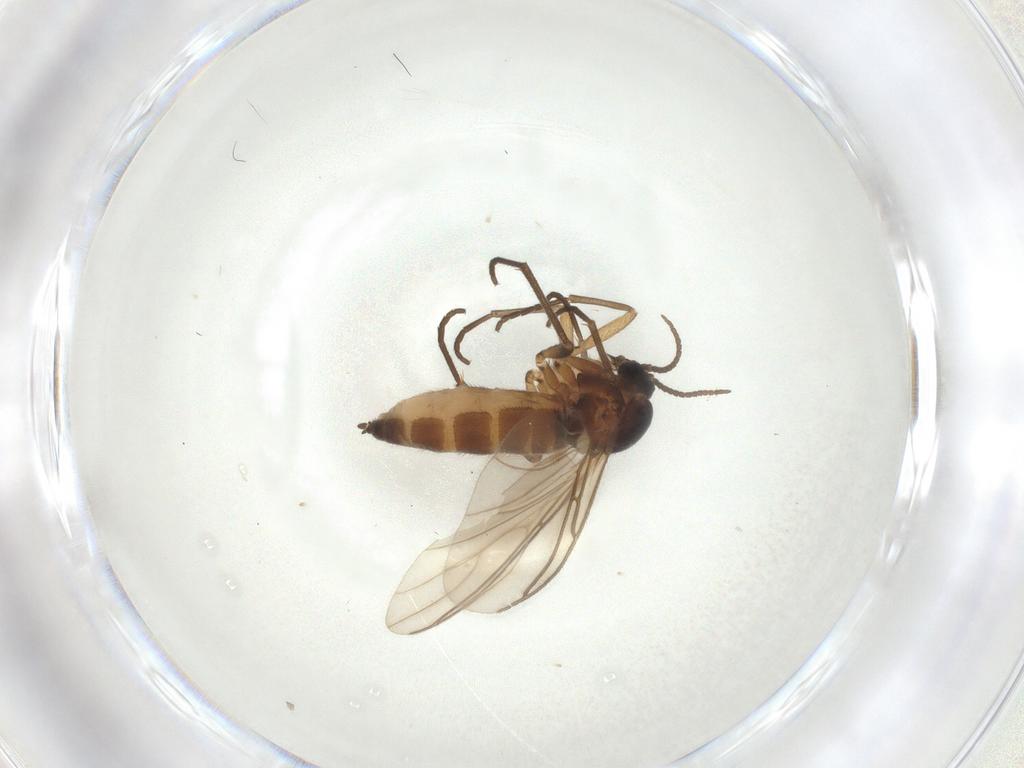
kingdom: Animalia
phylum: Arthropoda
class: Insecta
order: Diptera
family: Sciaridae
